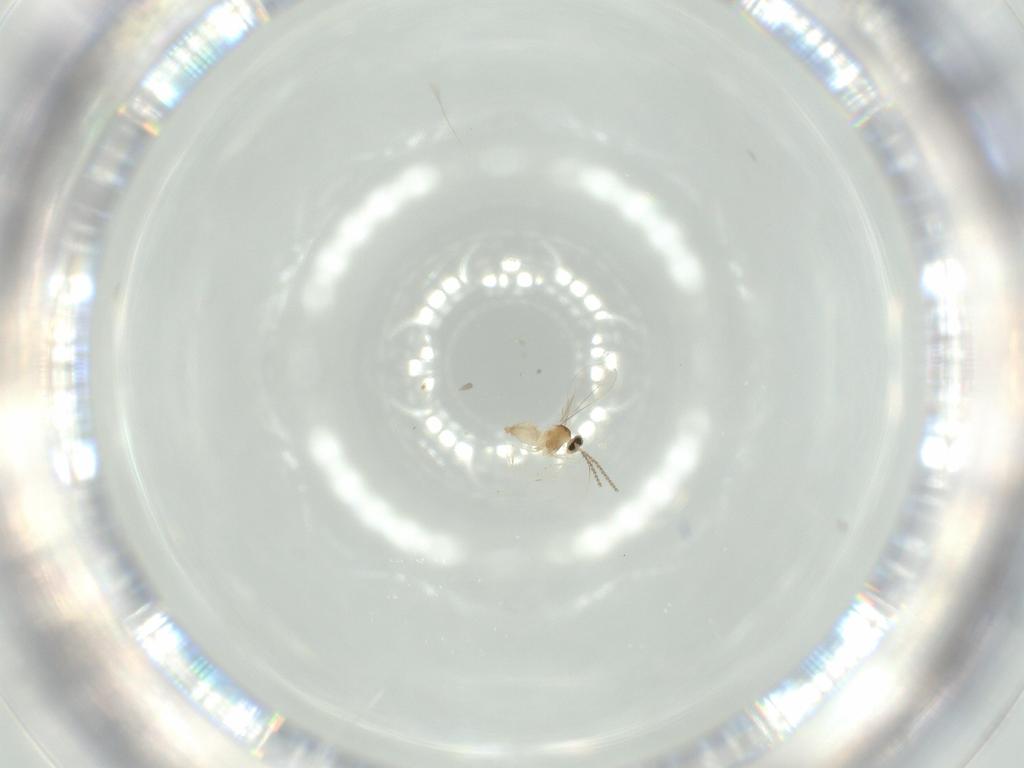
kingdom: Animalia
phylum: Arthropoda
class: Insecta
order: Diptera
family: Cecidomyiidae
